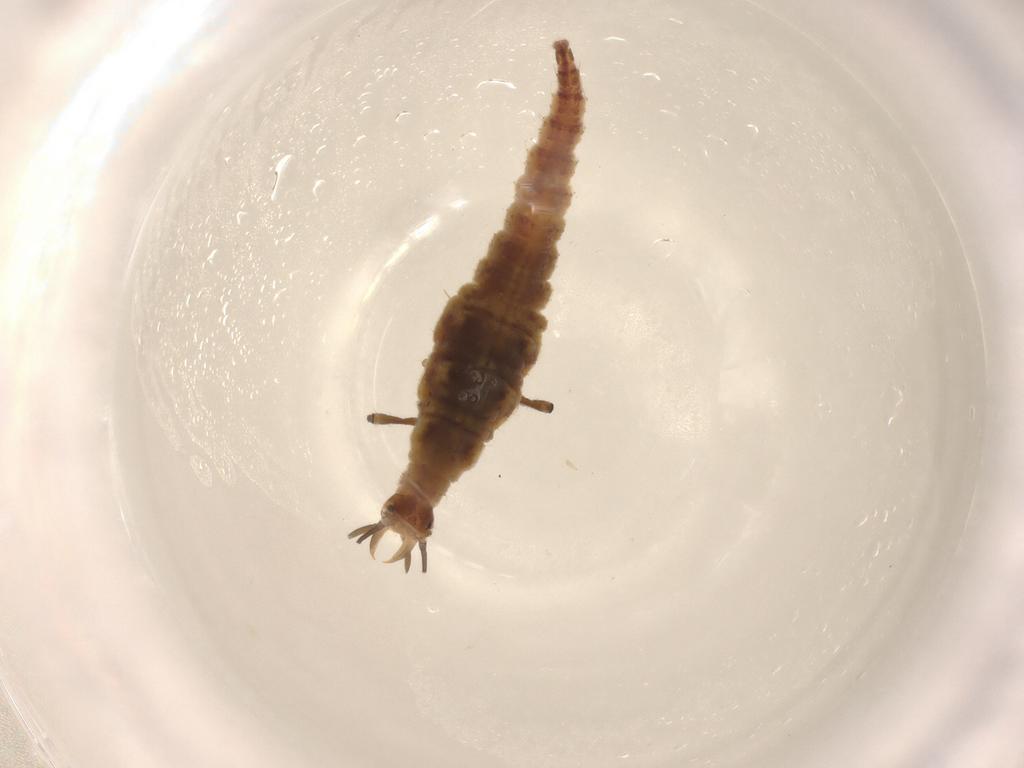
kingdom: Animalia
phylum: Arthropoda
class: Insecta
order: Neuroptera
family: Hemerobiidae
